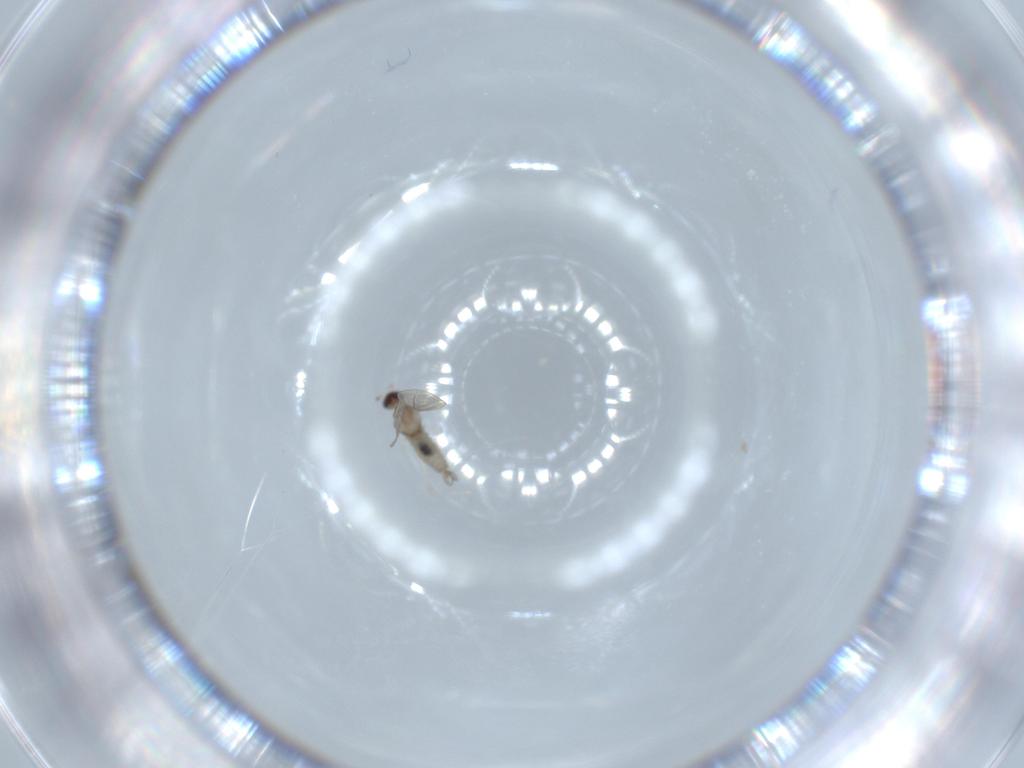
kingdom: Animalia
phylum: Arthropoda
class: Insecta
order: Diptera
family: Cecidomyiidae
